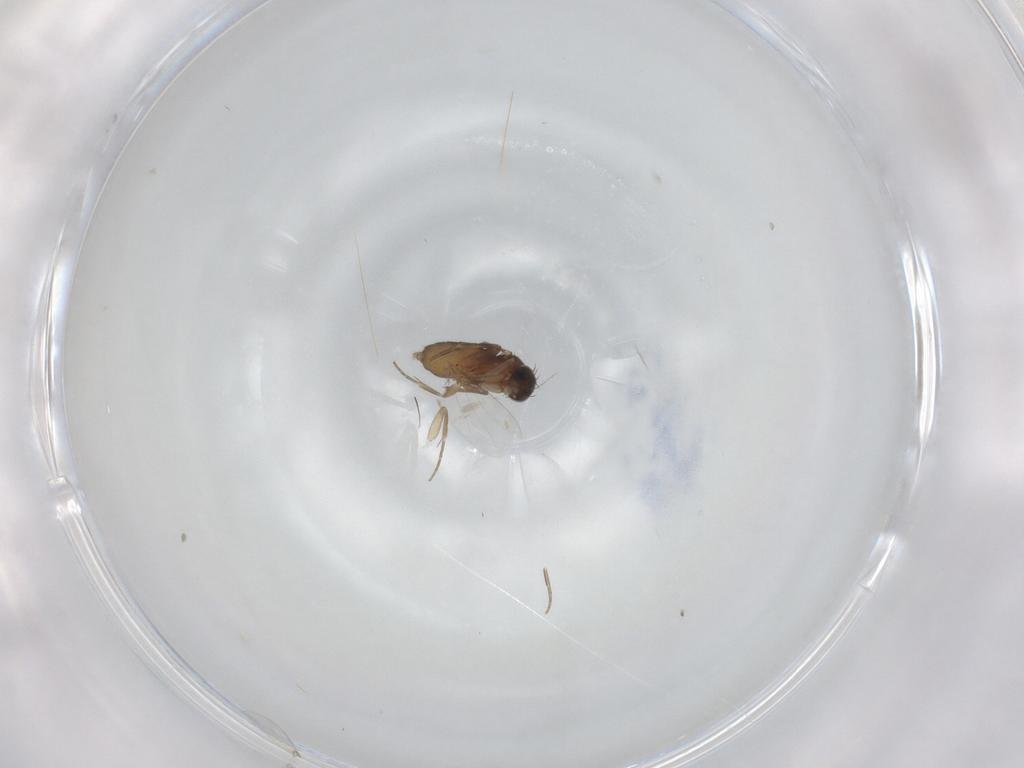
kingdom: Animalia
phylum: Arthropoda
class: Insecta
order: Diptera
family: Phoridae
